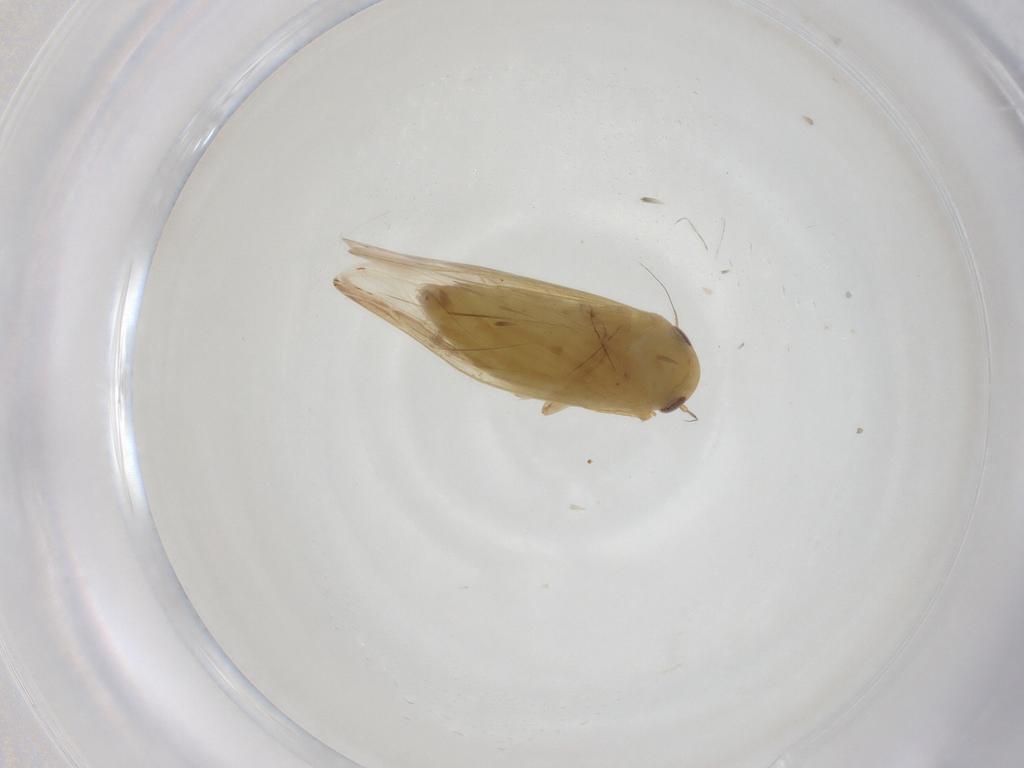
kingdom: Animalia
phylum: Arthropoda
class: Insecta
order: Hemiptera
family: Cicadellidae
